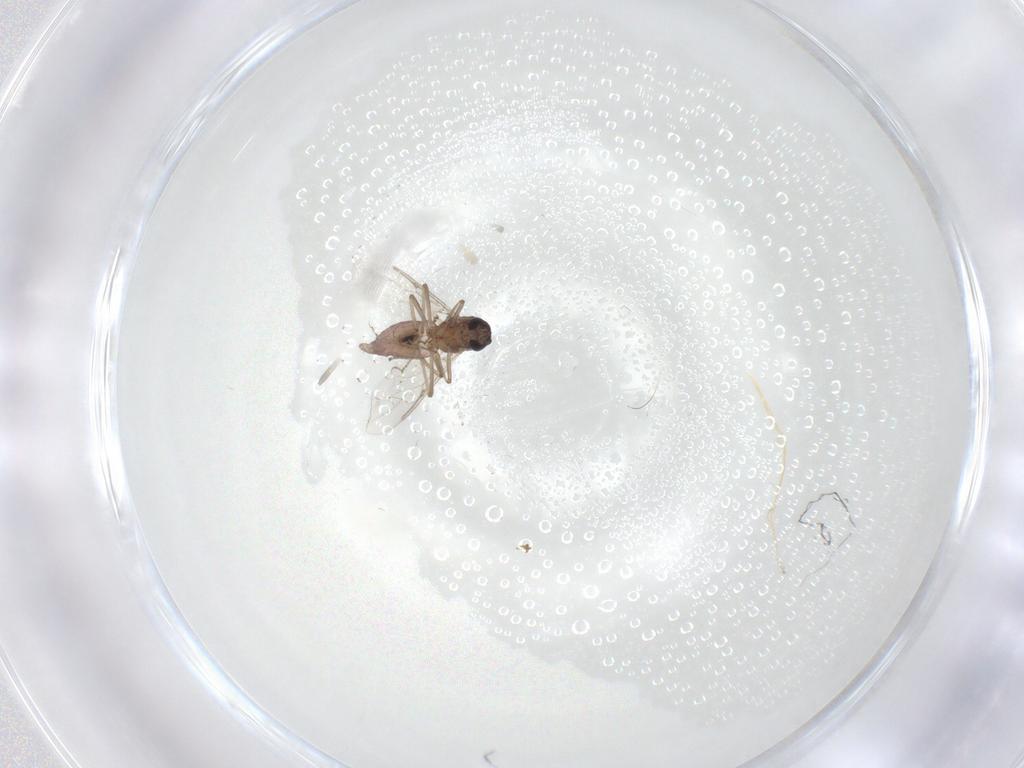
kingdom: Animalia
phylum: Arthropoda
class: Insecta
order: Diptera
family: Ceratopogonidae
